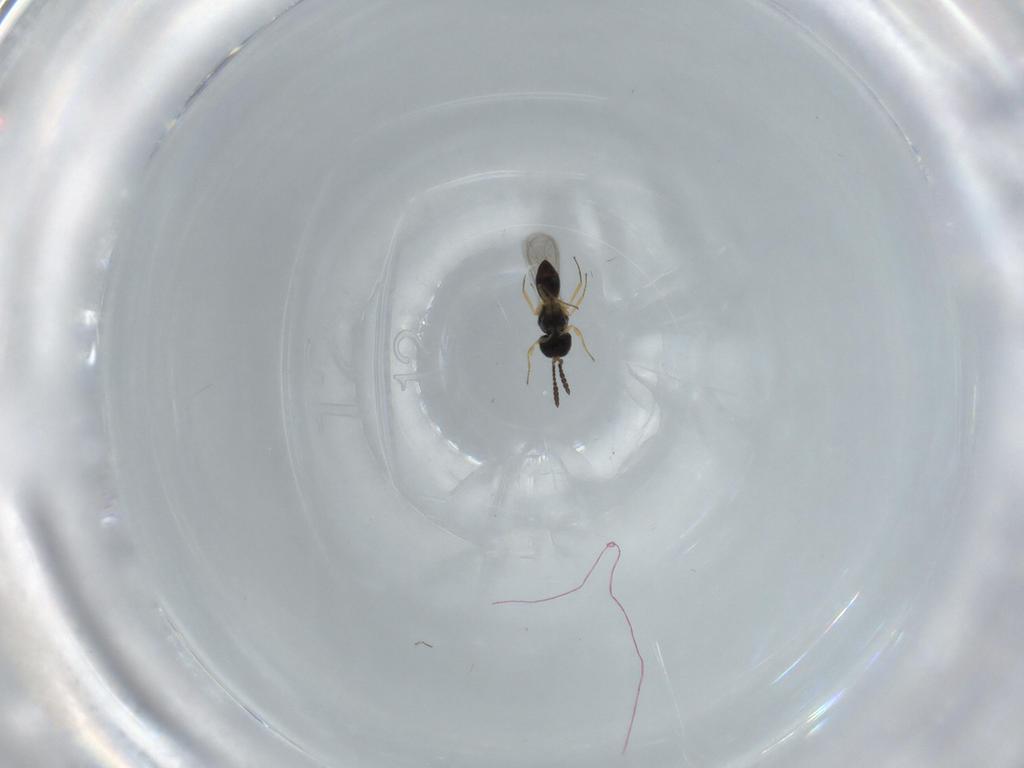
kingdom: Animalia
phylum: Arthropoda
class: Insecta
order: Hymenoptera
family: Scelionidae
